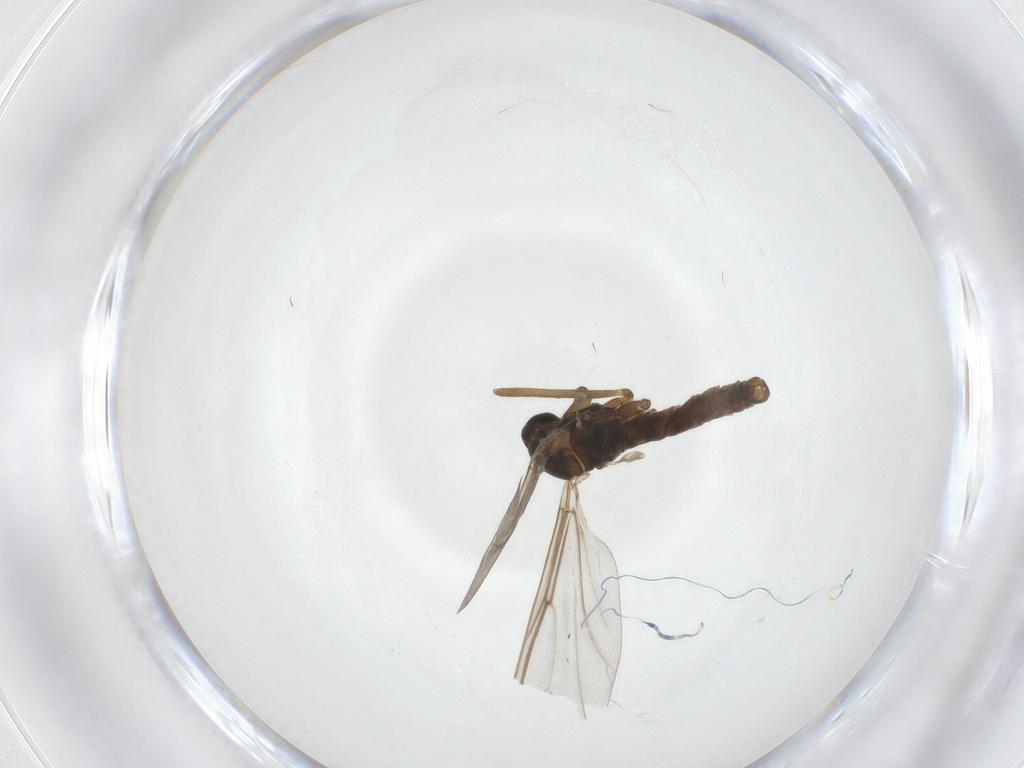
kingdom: Animalia
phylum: Arthropoda
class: Insecta
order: Diptera
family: Cecidomyiidae
